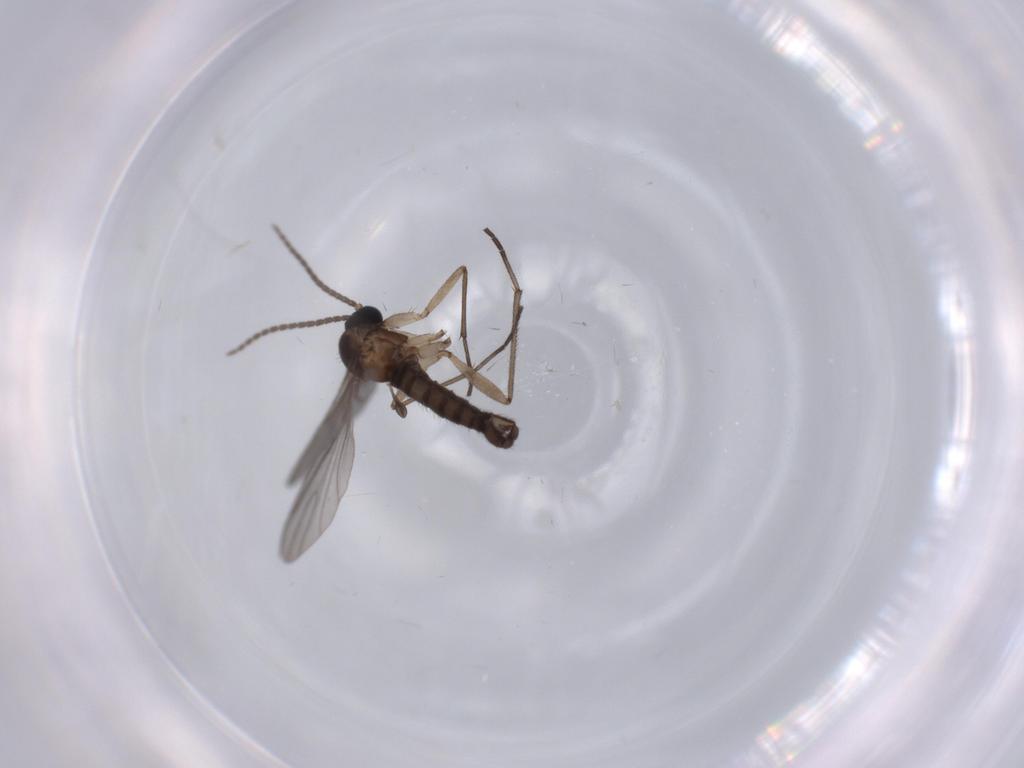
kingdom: Animalia
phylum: Arthropoda
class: Insecta
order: Diptera
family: Sciaridae
